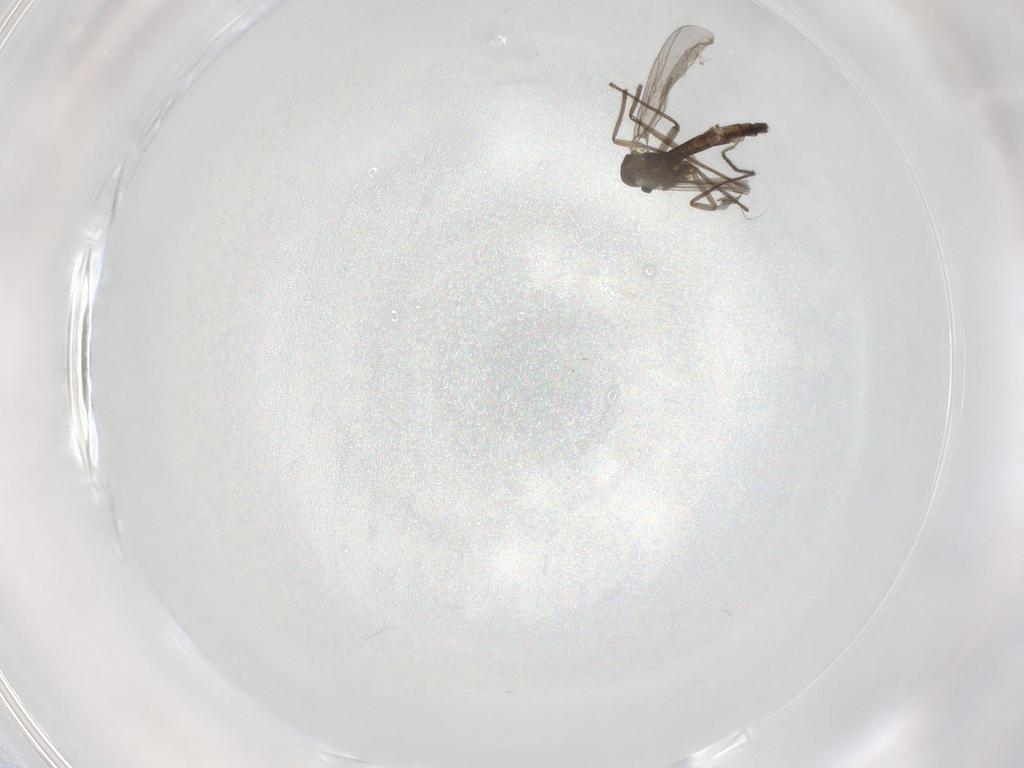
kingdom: Animalia
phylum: Arthropoda
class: Insecta
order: Diptera
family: Chironomidae
